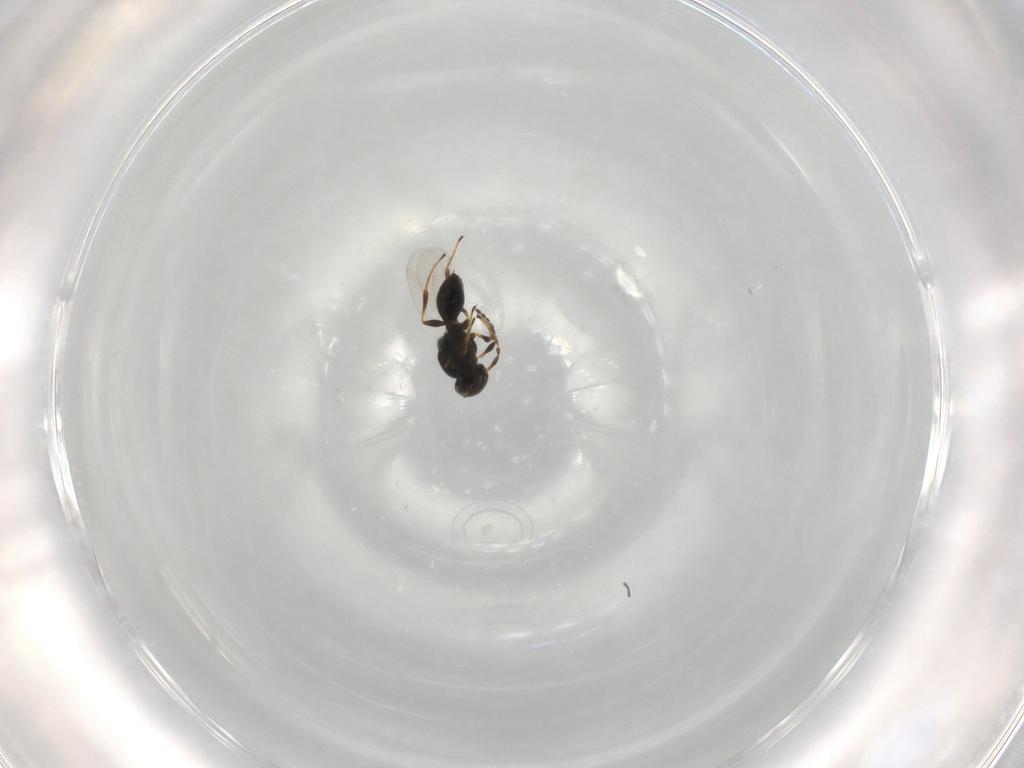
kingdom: Animalia
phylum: Arthropoda
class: Insecta
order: Hymenoptera
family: Platygastridae
